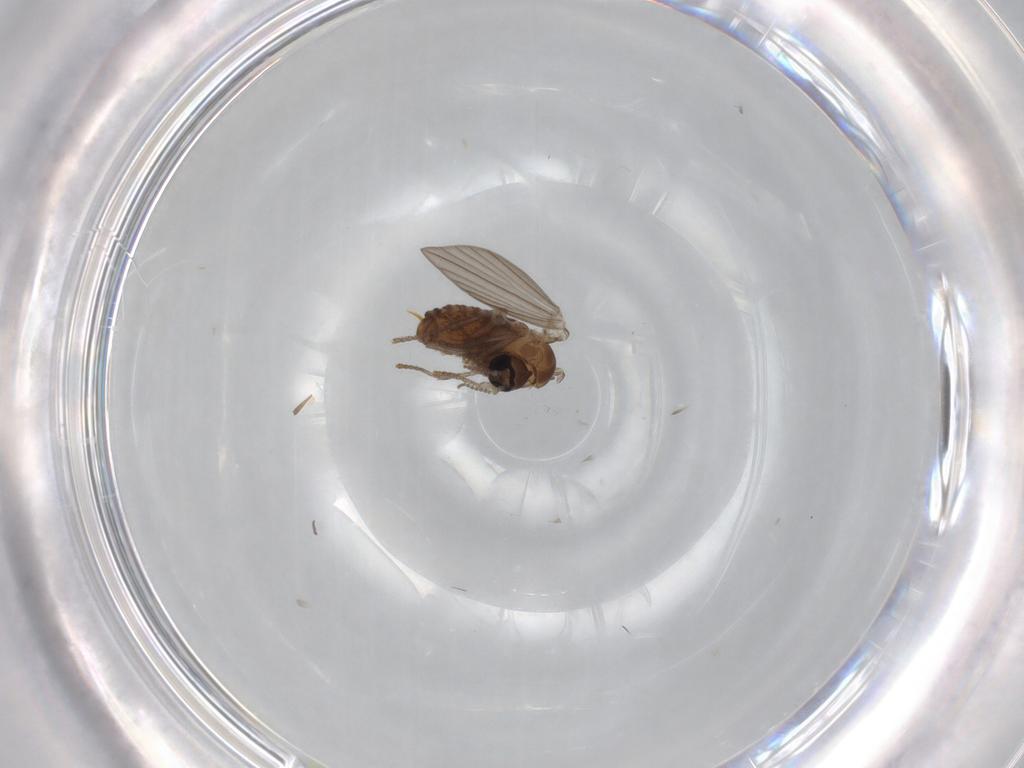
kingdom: Animalia
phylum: Arthropoda
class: Insecta
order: Diptera
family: Psychodidae
